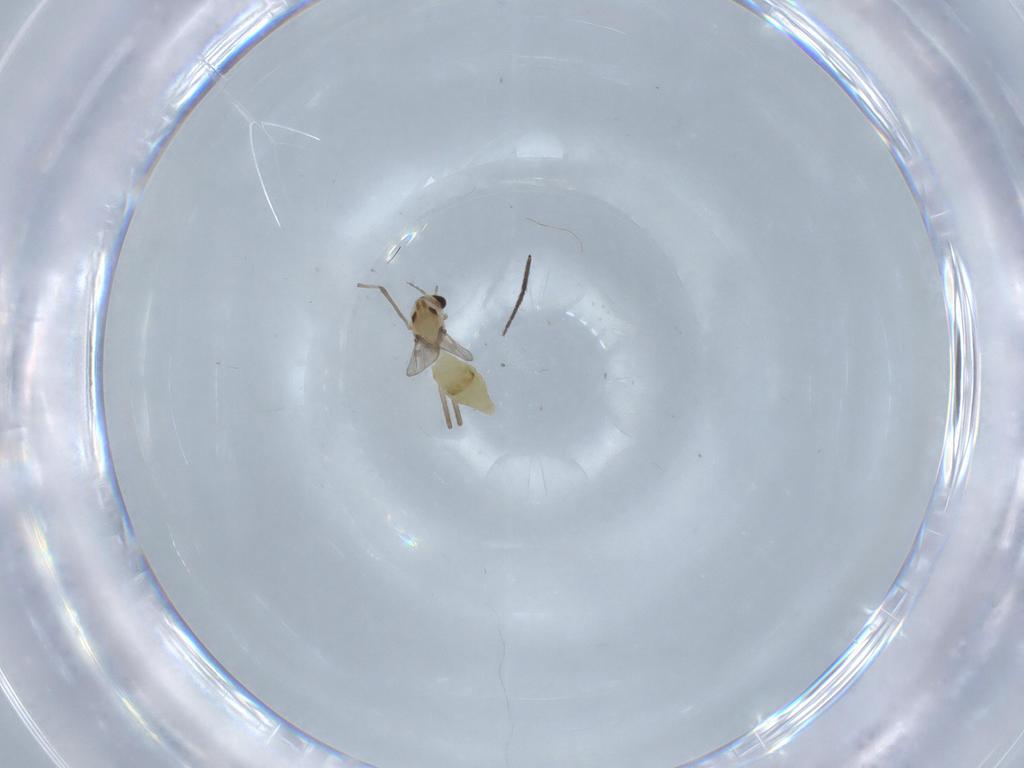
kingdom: Animalia
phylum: Arthropoda
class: Insecta
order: Diptera
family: Chironomidae
